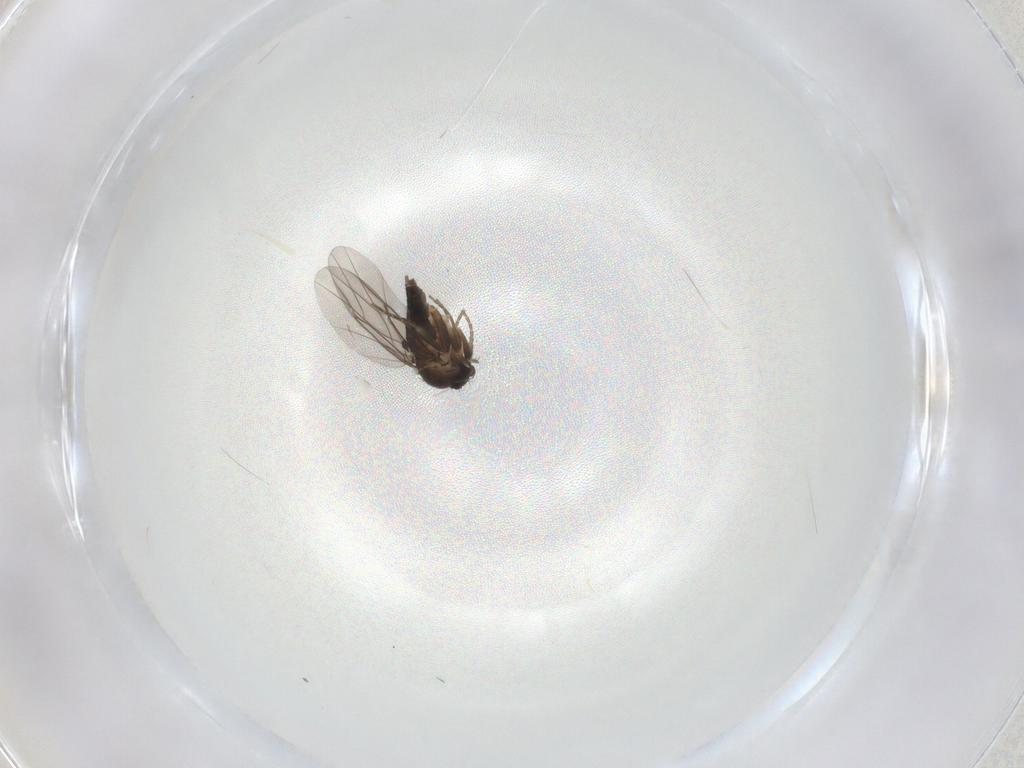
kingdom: Animalia
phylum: Arthropoda
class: Insecta
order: Diptera
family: Psychodidae
